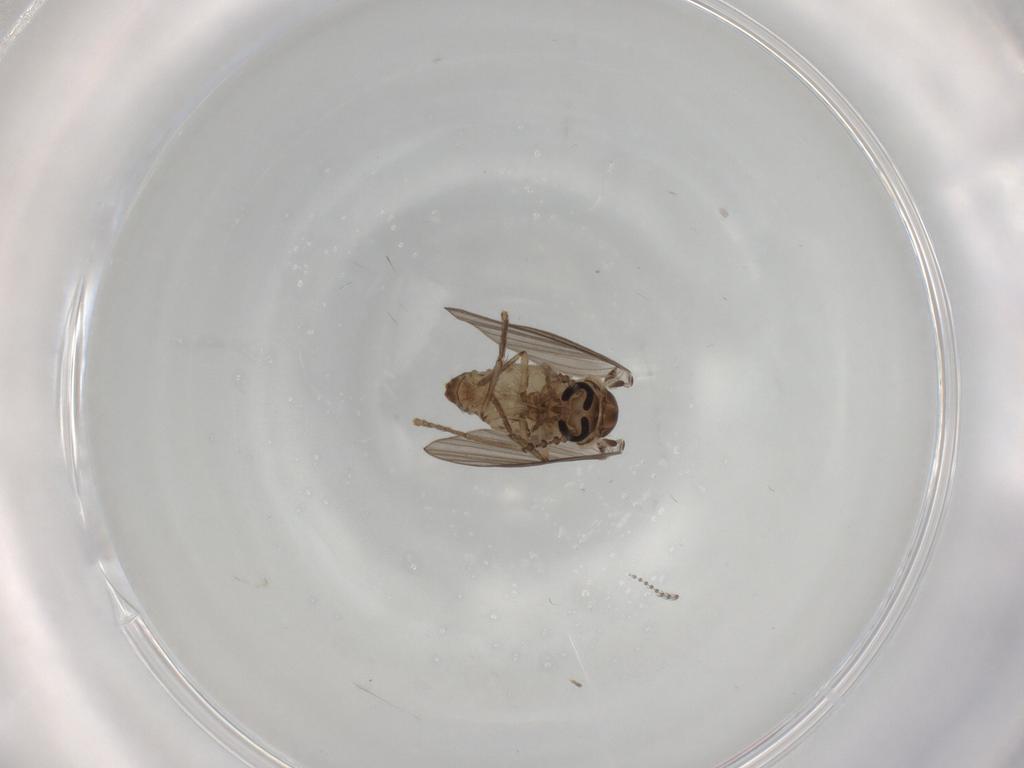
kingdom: Animalia
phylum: Arthropoda
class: Insecta
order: Diptera
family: Psychodidae
